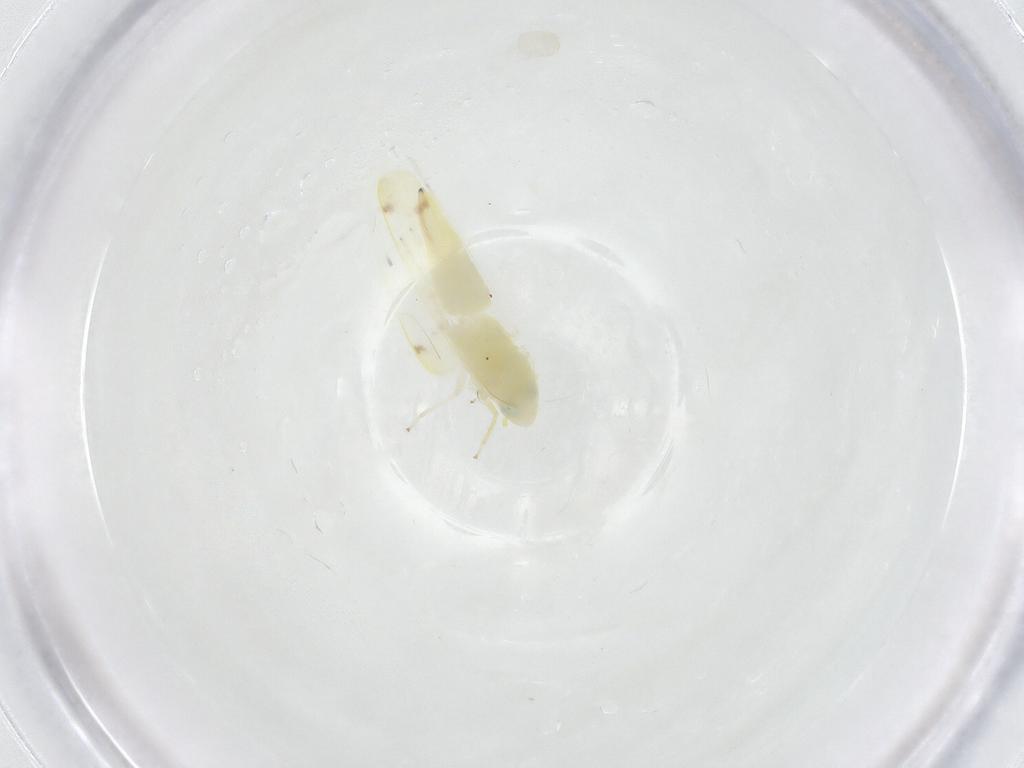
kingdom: Animalia
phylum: Arthropoda
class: Insecta
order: Hemiptera
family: Cicadellidae
